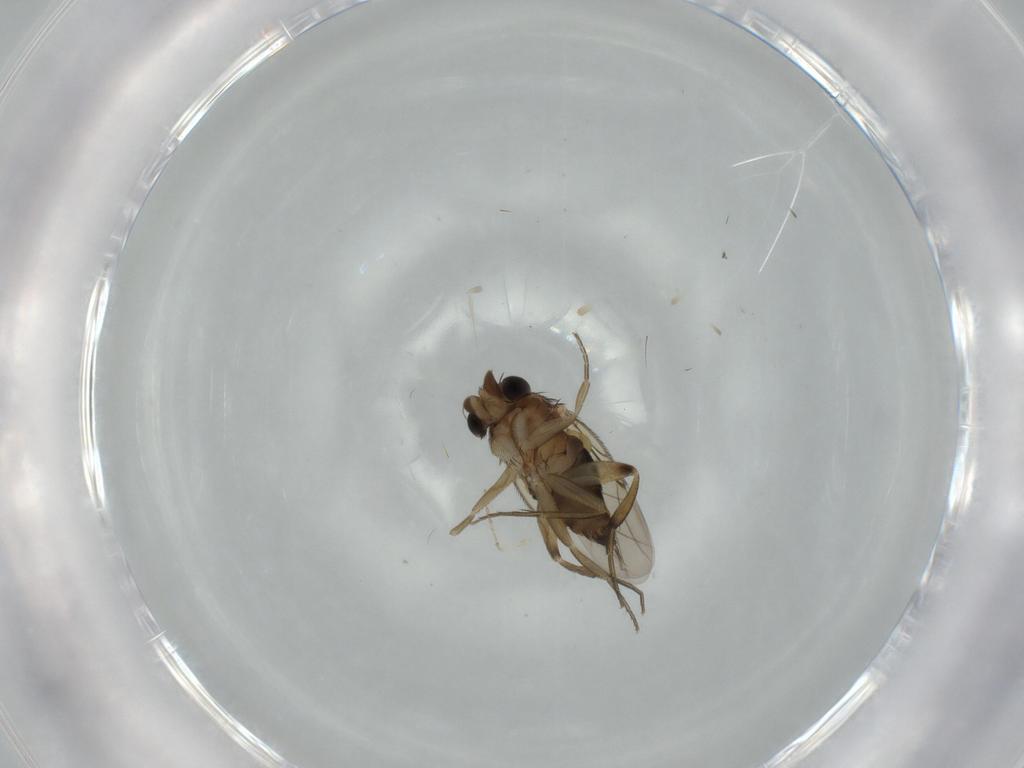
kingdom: Animalia
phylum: Arthropoda
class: Insecta
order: Diptera
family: Phoridae
